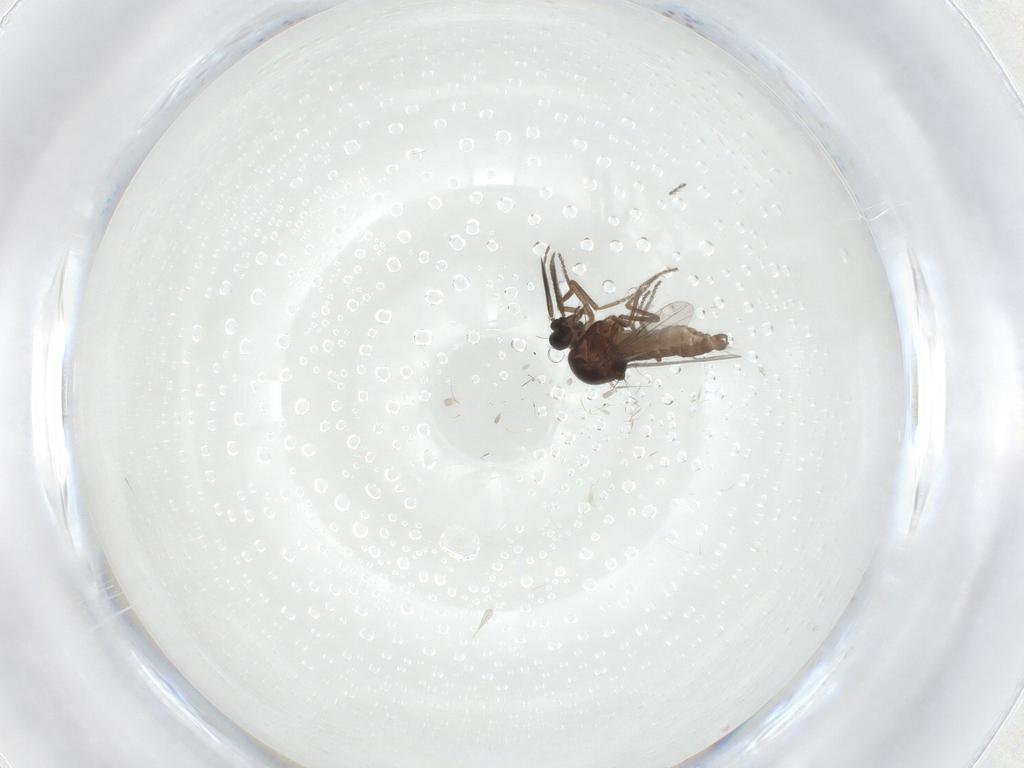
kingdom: Animalia
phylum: Arthropoda
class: Insecta
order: Diptera
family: Ceratopogonidae
